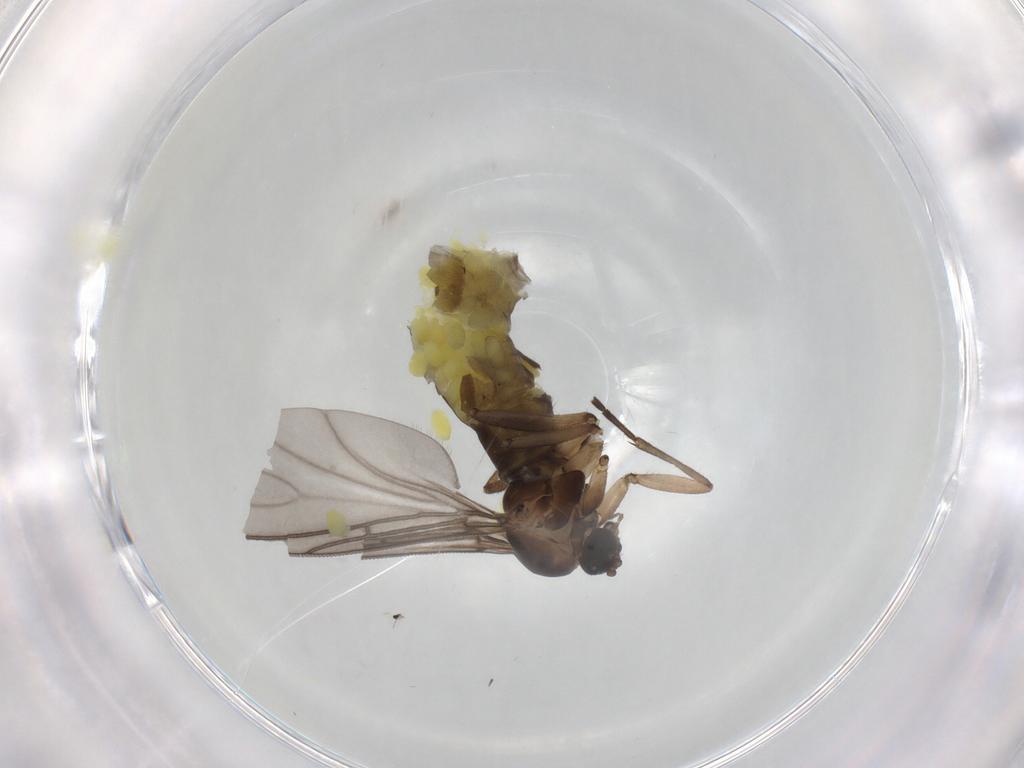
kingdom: Animalia
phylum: Arthropoda
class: Insecta
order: Diptera
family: Sciaridae
